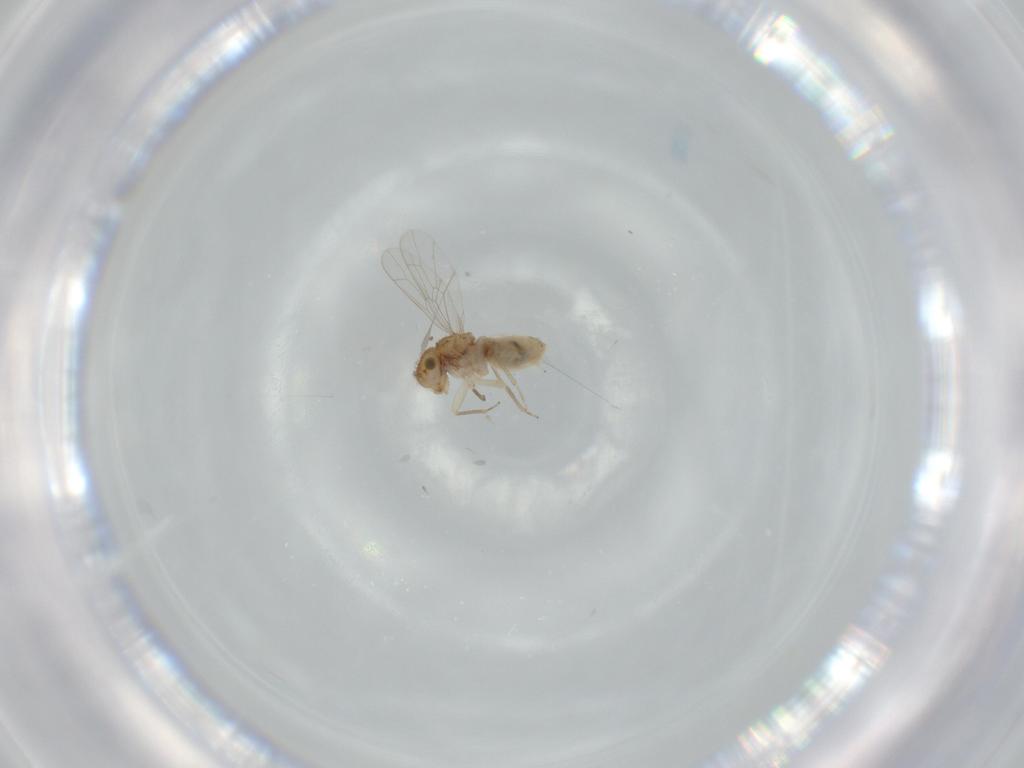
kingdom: Animalia
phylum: Arthropoda
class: Insecta
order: Psocodea
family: Ectopsocidae
